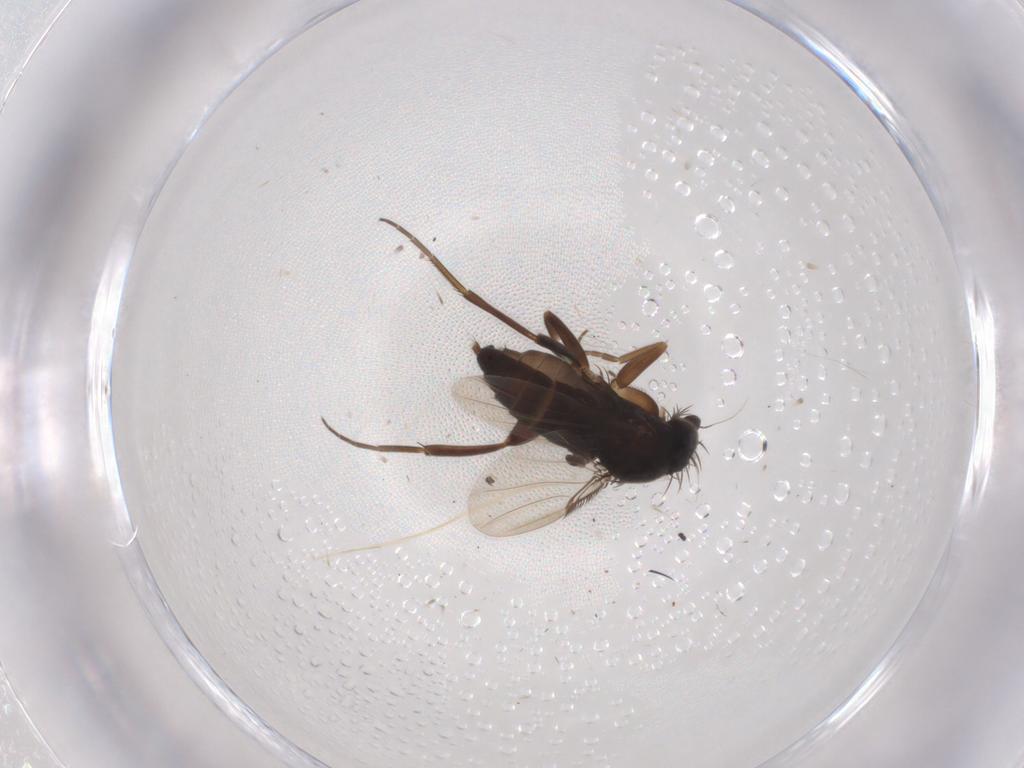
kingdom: Animalia
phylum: Arthropoda
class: Insecta
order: Diptera
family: Phoridae
